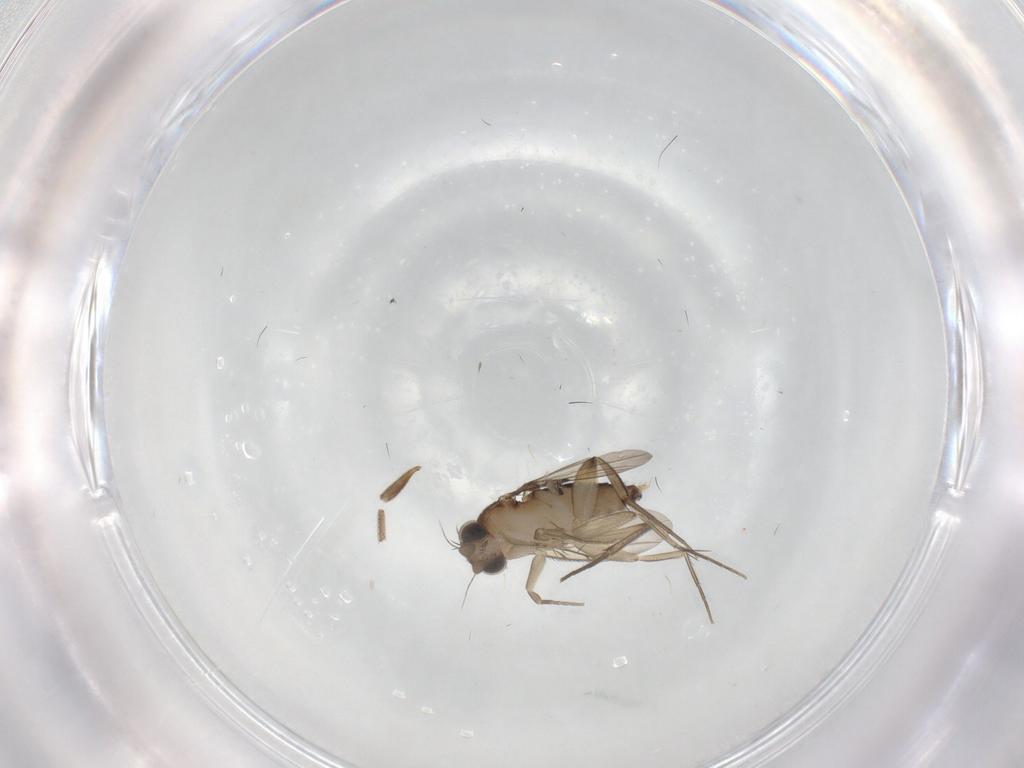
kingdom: Animalia
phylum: Arthropoda
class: Insecta
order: Diptera
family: Phoridae
